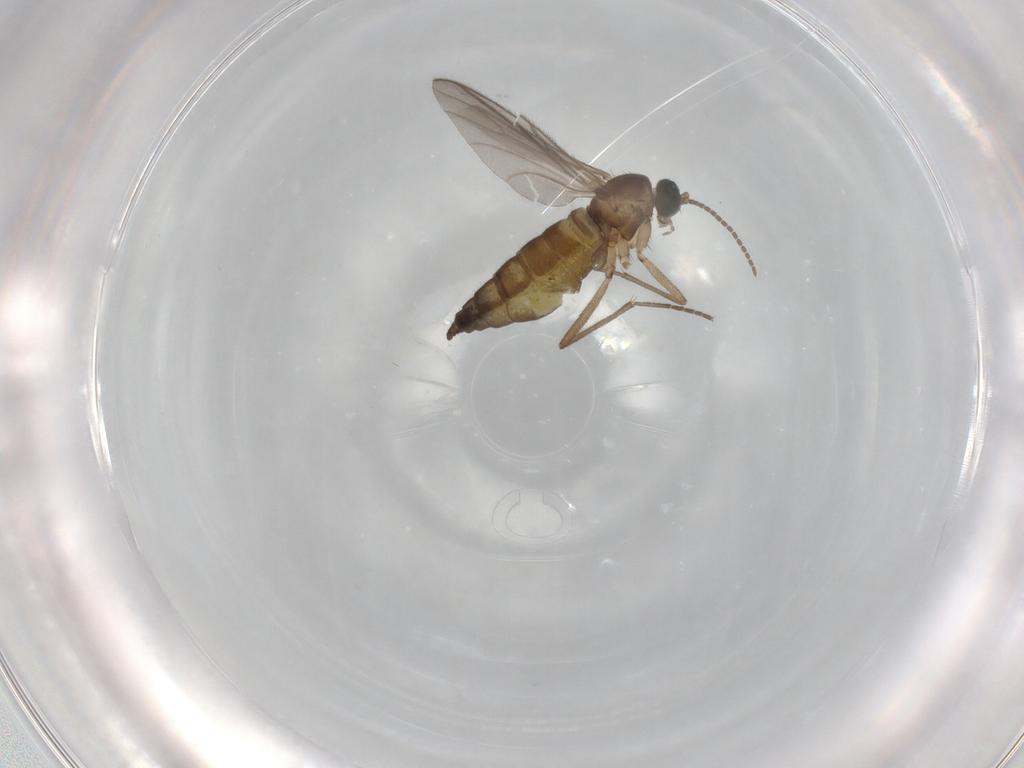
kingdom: Animalia
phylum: Arthropoda
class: Insecta
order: Diptera
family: Sciaridae
